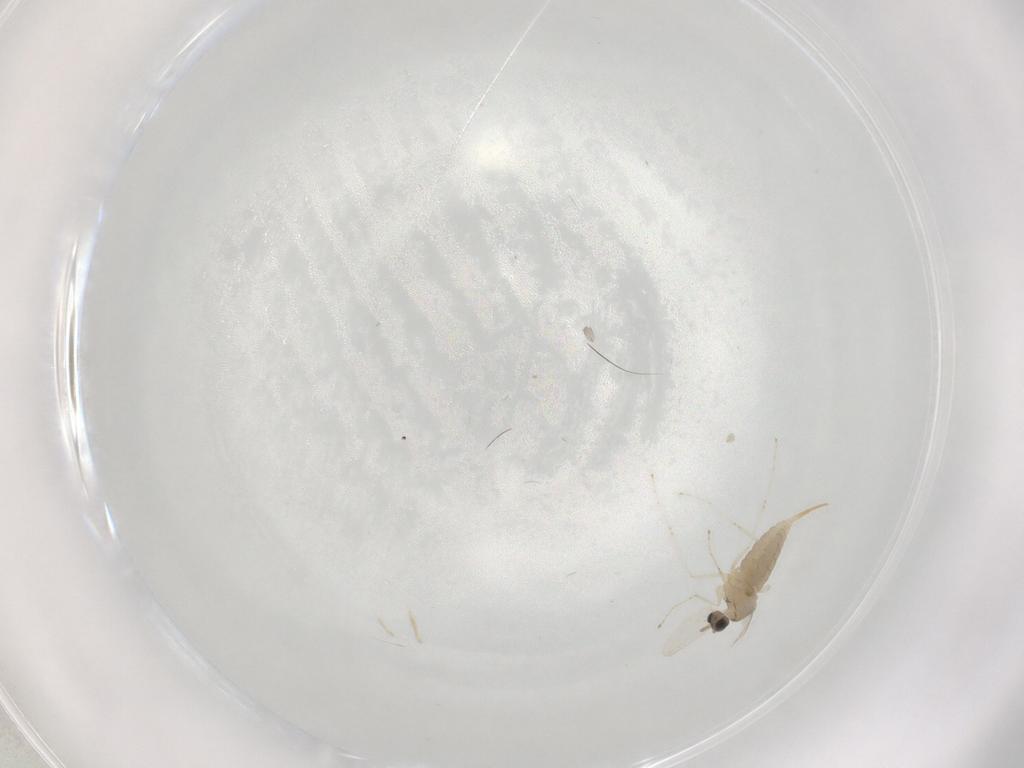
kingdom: Animalia
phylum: Arthropoda
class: Insecta
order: Diptera
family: Cecidomyiidae
